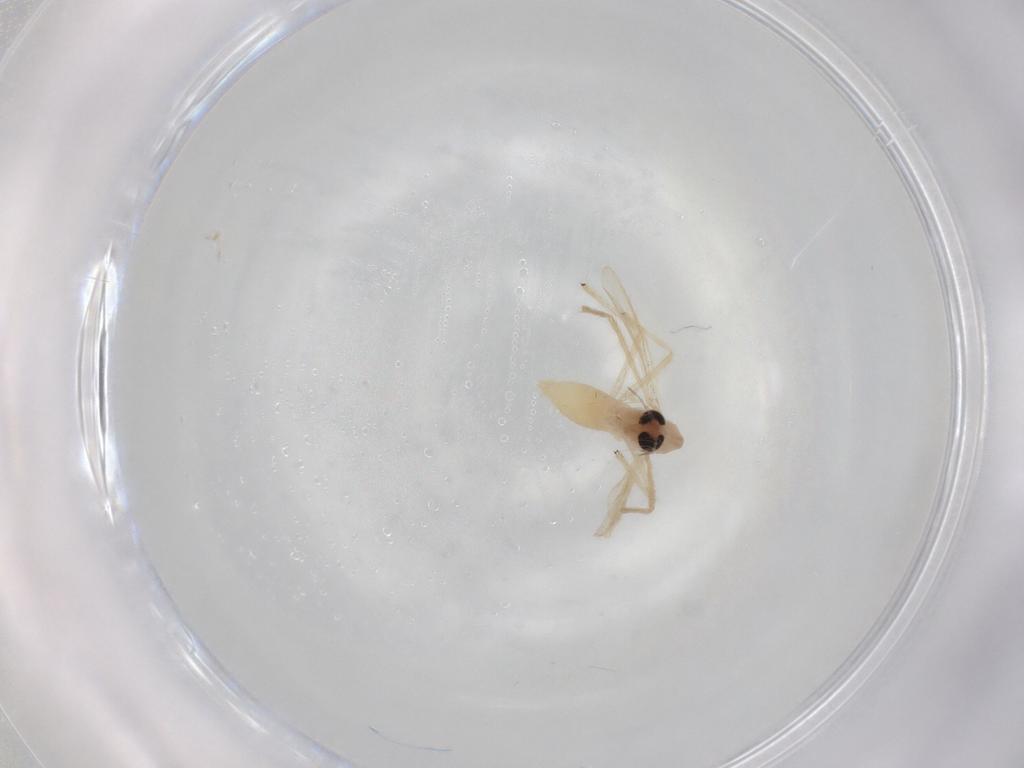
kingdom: Animalia
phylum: Arthropoda
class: Insecta
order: Diptera
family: Chironomidae
